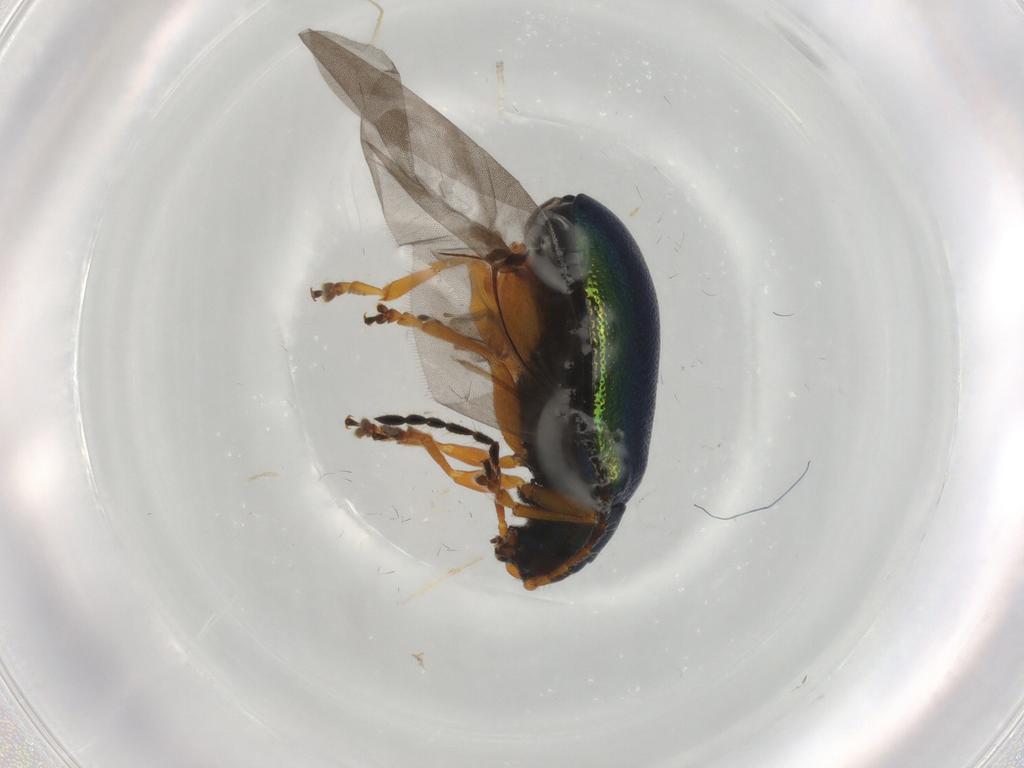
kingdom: Animalia
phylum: Arthropoda
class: Insecta
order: Coleoptera
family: Chrysomelidae
